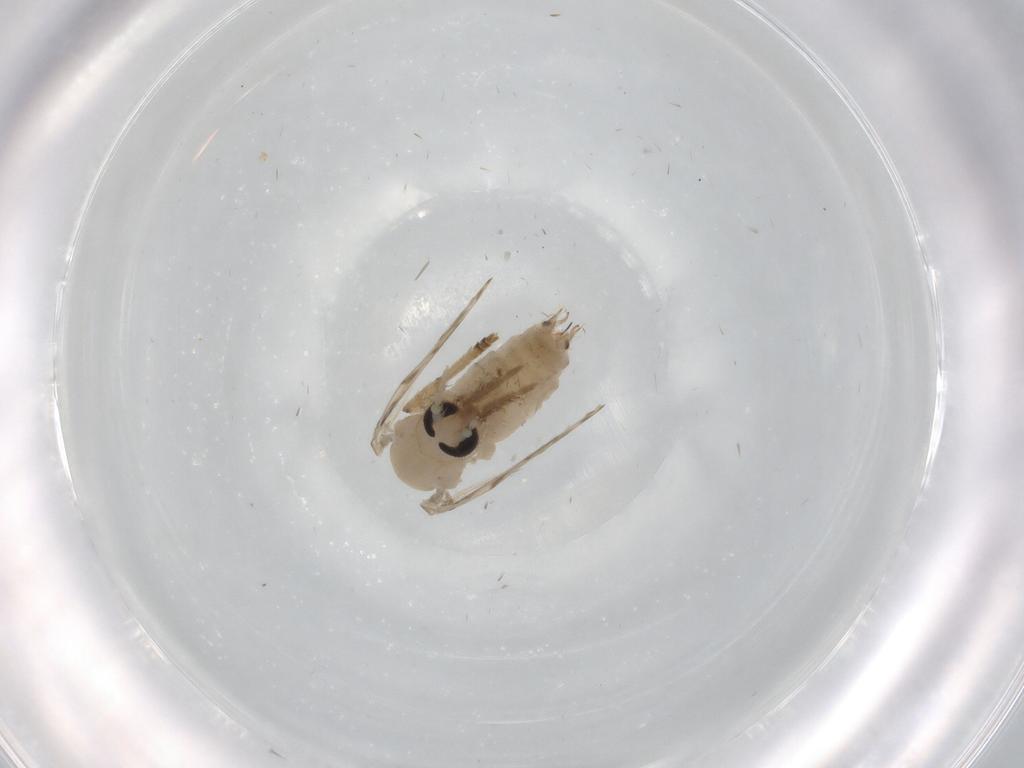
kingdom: Animalia
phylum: Arthropoda
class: Insecta
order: Diptera
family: Psychodidae
